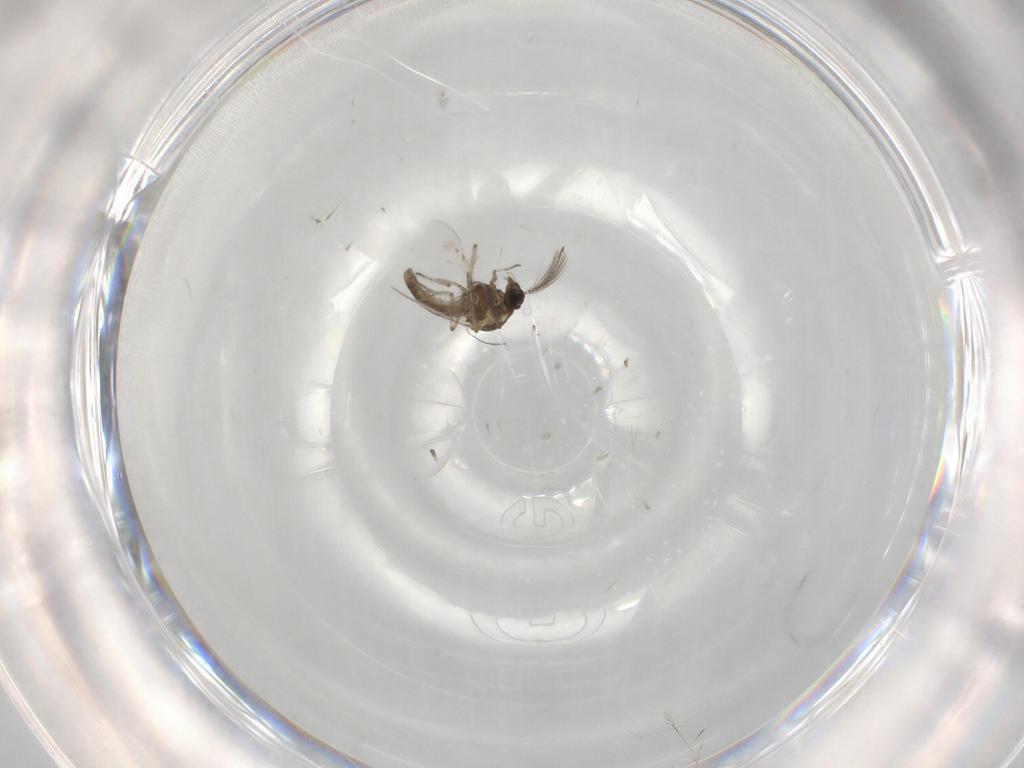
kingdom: Animalia
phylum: Arthropoda
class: Insecta
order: Diptera
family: Ceratopogonidae
